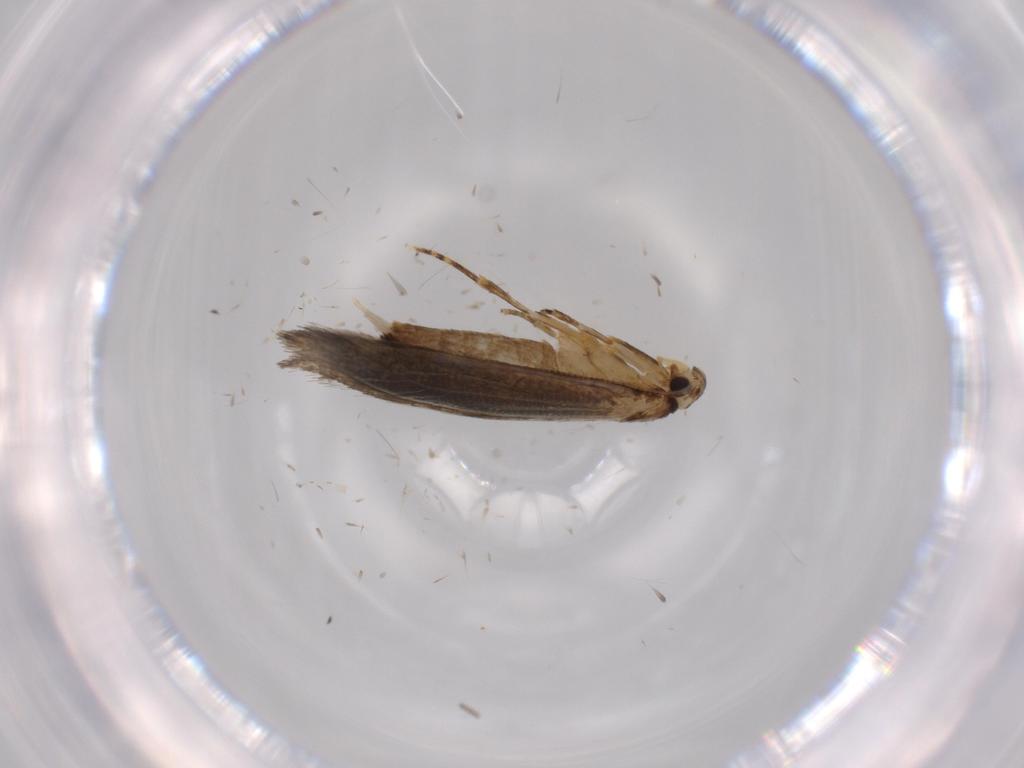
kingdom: Animalia
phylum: Arthropoda
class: Insecta
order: Lepidoptera
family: Tineidae
